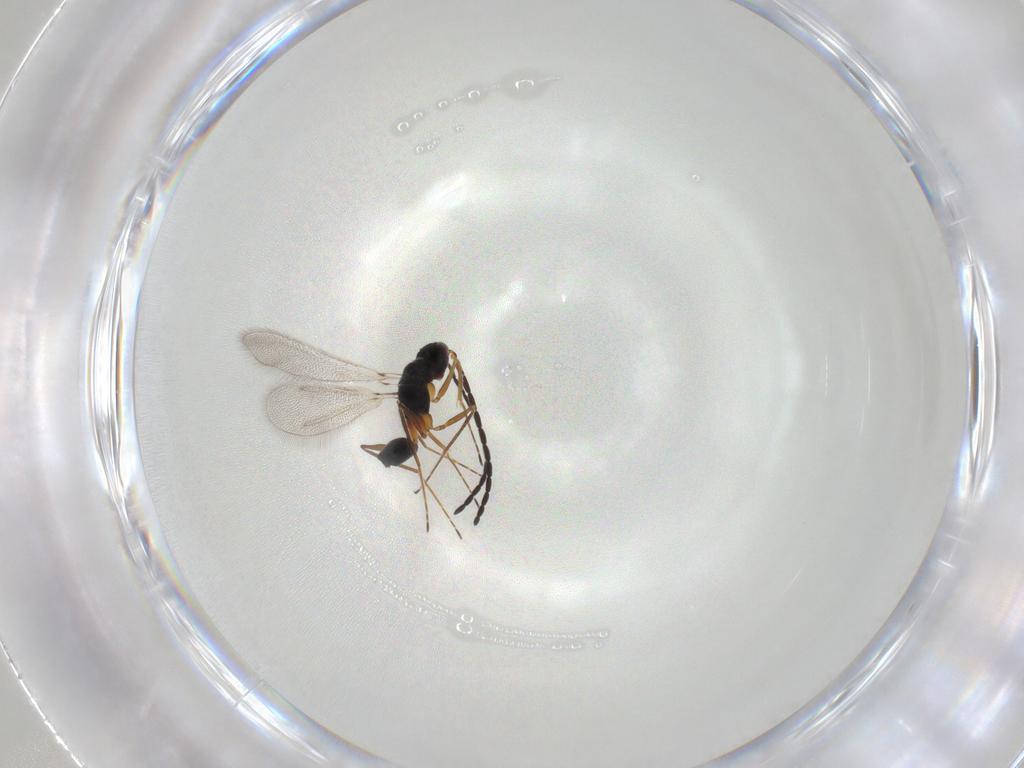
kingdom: Animalia
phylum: Arthropoda
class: Insecta
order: Hymenoptera
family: Mymaridae
